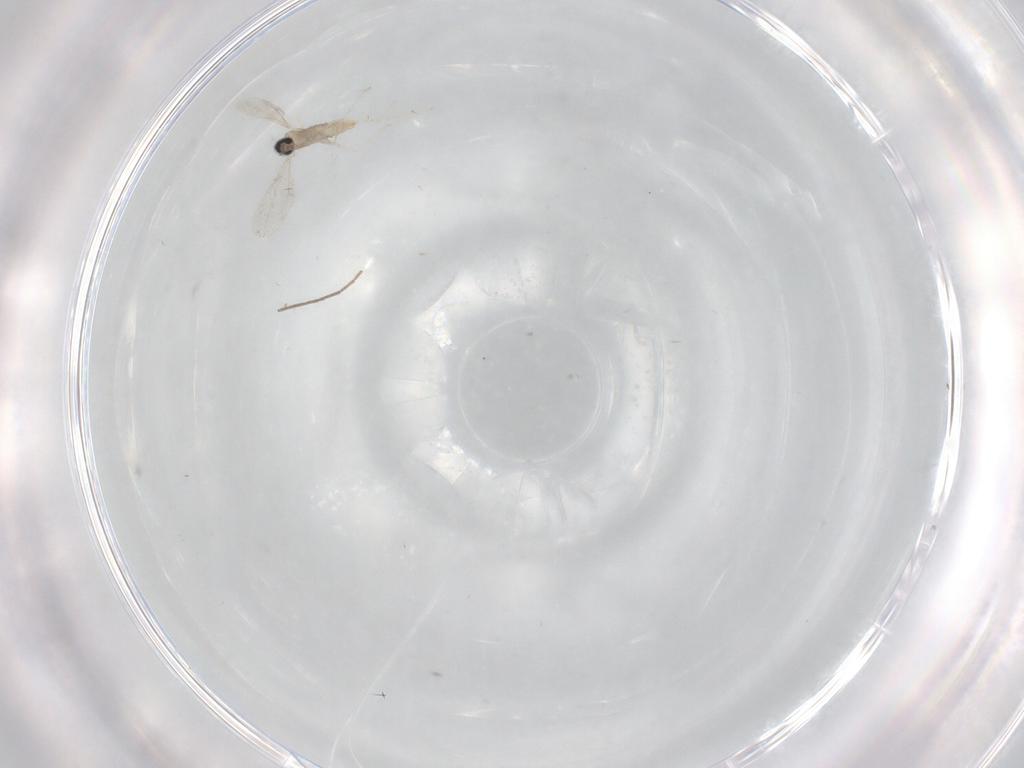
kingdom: Animalia
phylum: Arthropoda
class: Insecta
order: Diptera
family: Cecidomyiidae
